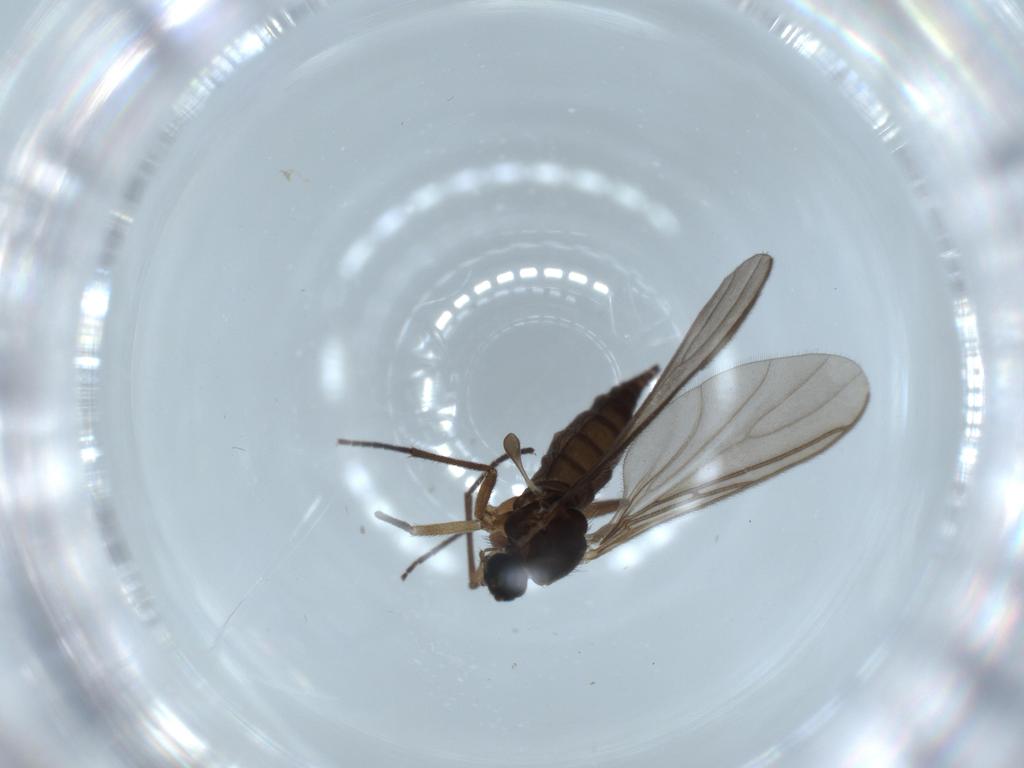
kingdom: Animalia
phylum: Arthropoda
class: Insecta
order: Diptera
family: Sciaridae
